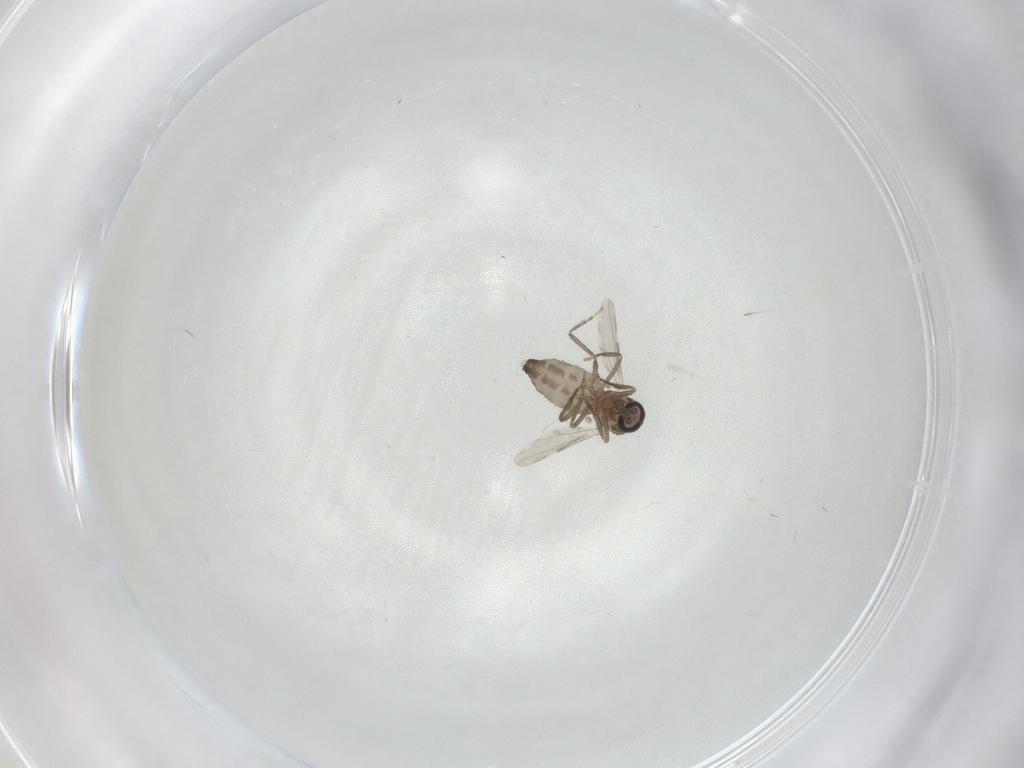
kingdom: Animalia
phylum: Arthropoda
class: Insecta
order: Diptera
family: Ceratopogonidae
